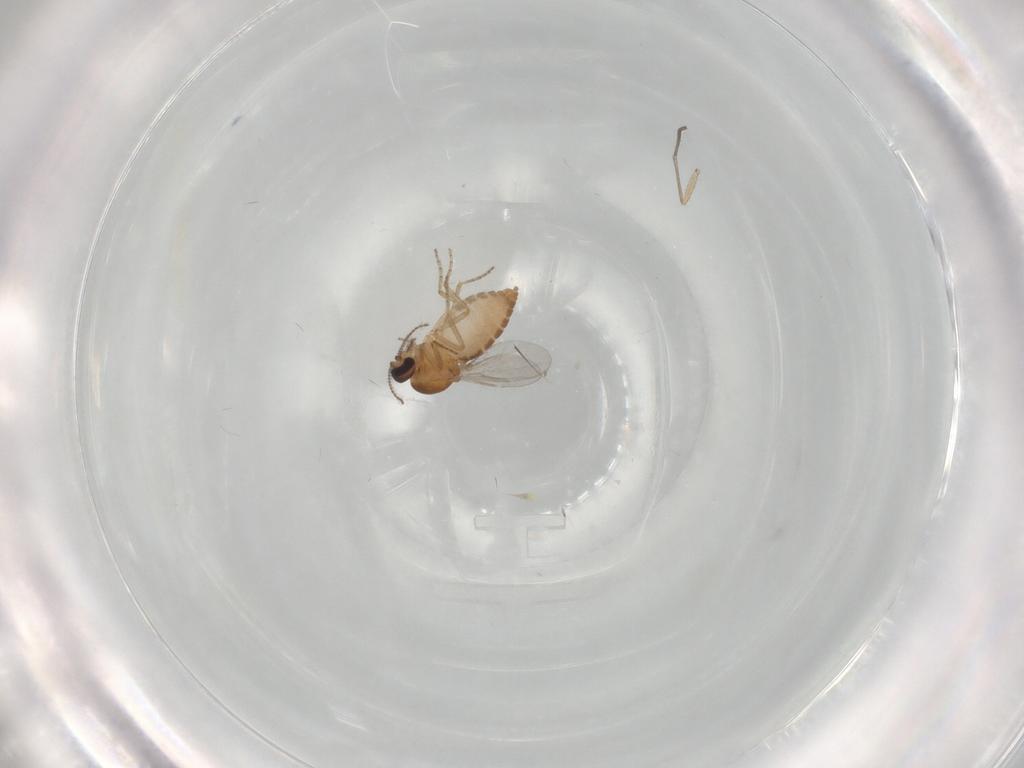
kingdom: Animalia
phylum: Arthropoda
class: Insecta
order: Diptera
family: Ceratopogonidae
